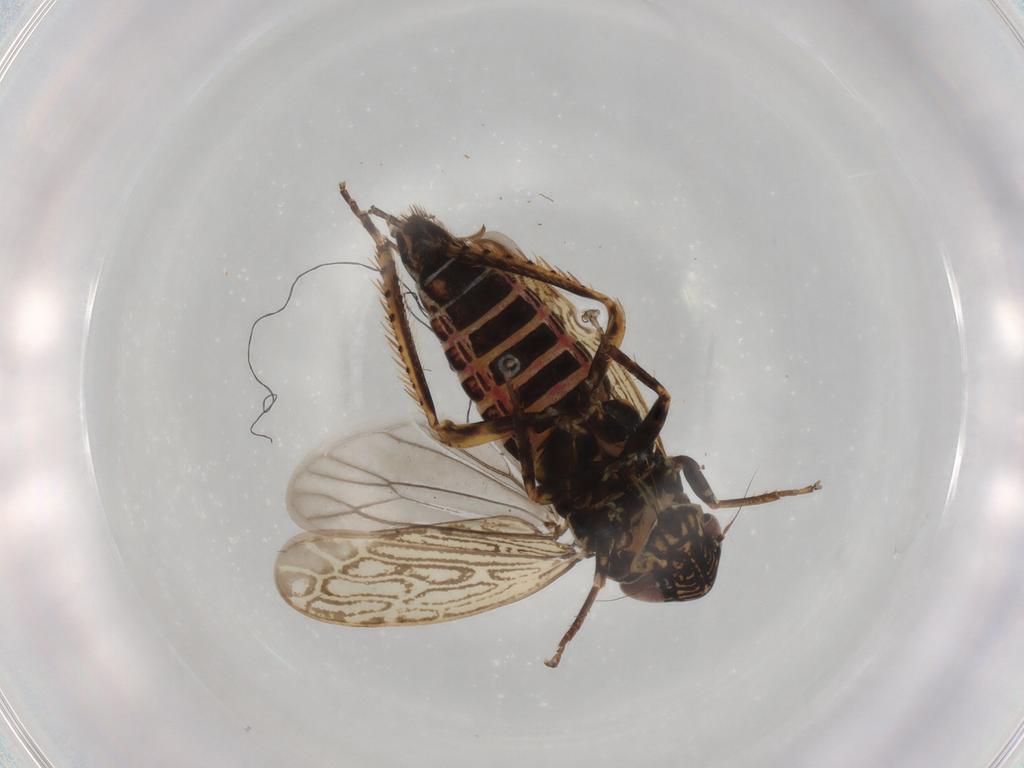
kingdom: Animalia
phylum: Arthropoda
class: Insecta
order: Hemiptera
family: Cicadellidae
